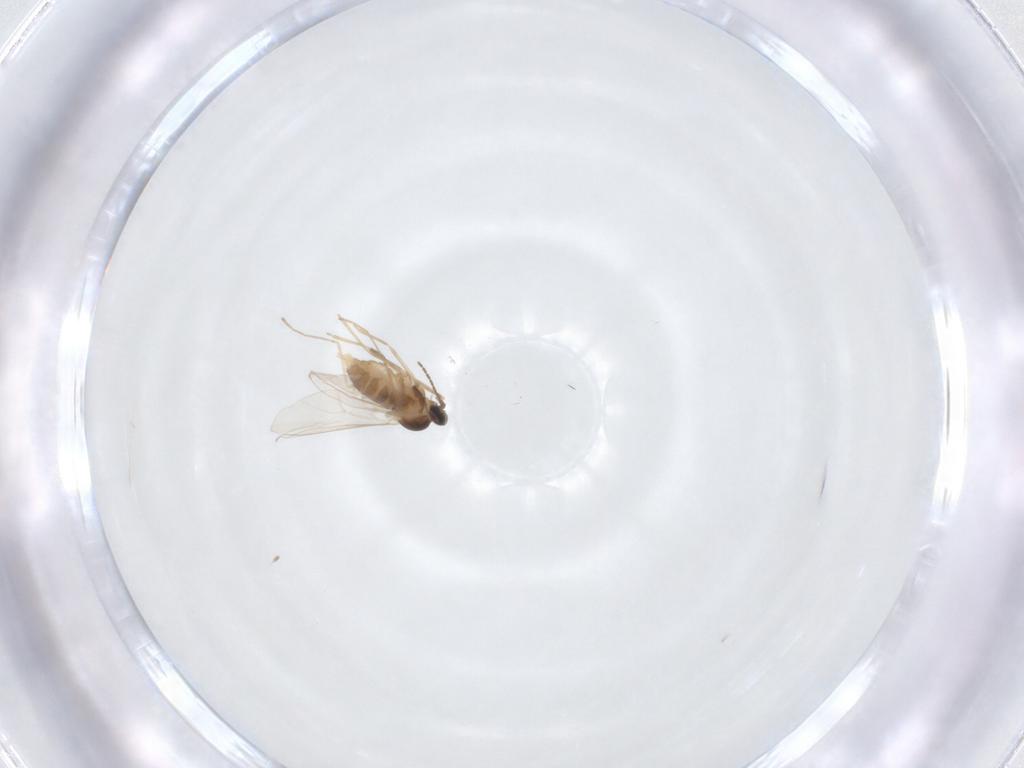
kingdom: Animalia
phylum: Arthropoda
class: Insecta
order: Diptera
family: Cecidomyiidae
